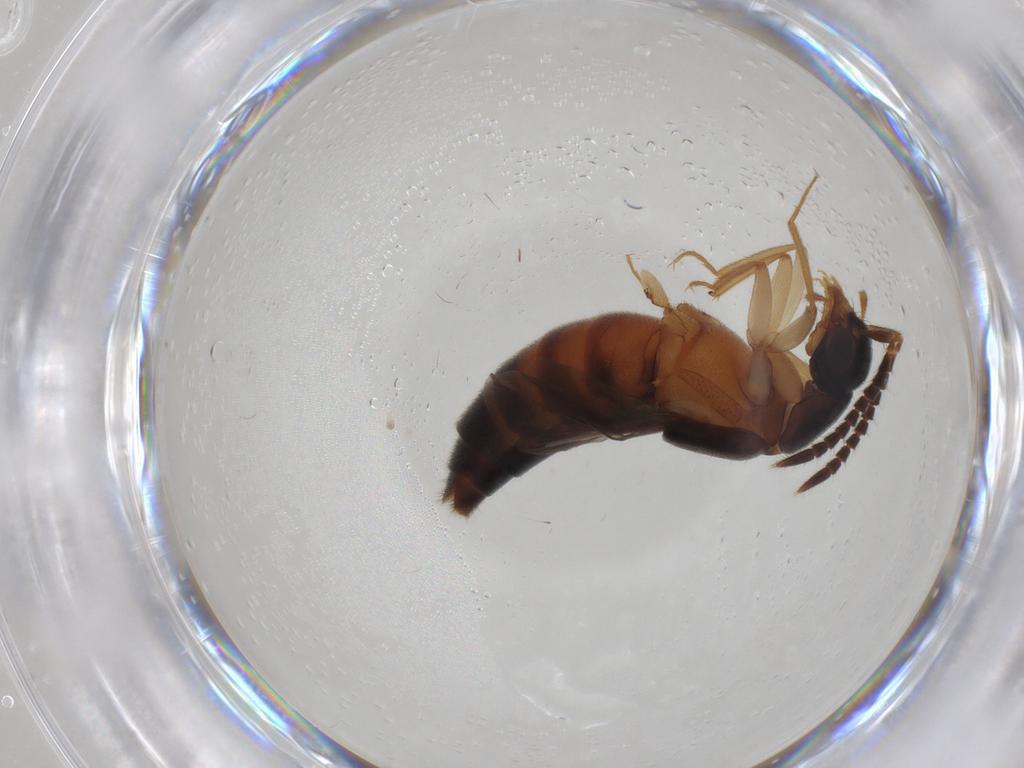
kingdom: Animalia
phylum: Arthropoda
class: Insecta
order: Coleoptera
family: Staphylinidae
